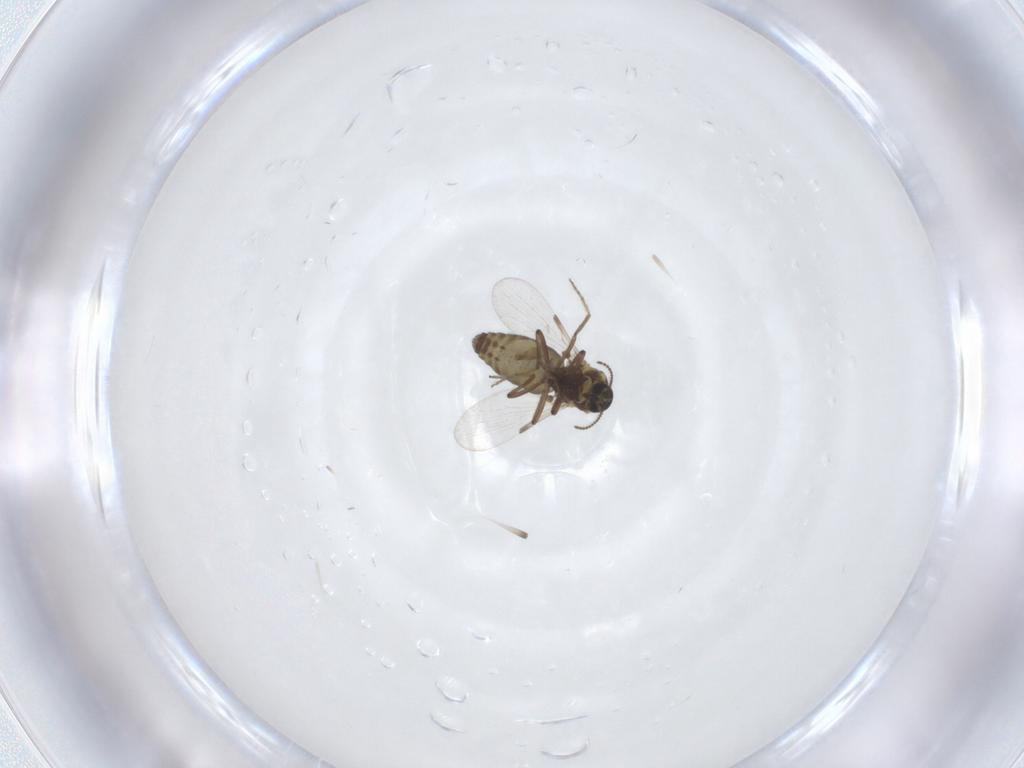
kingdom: Animalia
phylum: Arthropoda
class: Insecta
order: Diptera
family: Ceratopogonidae
